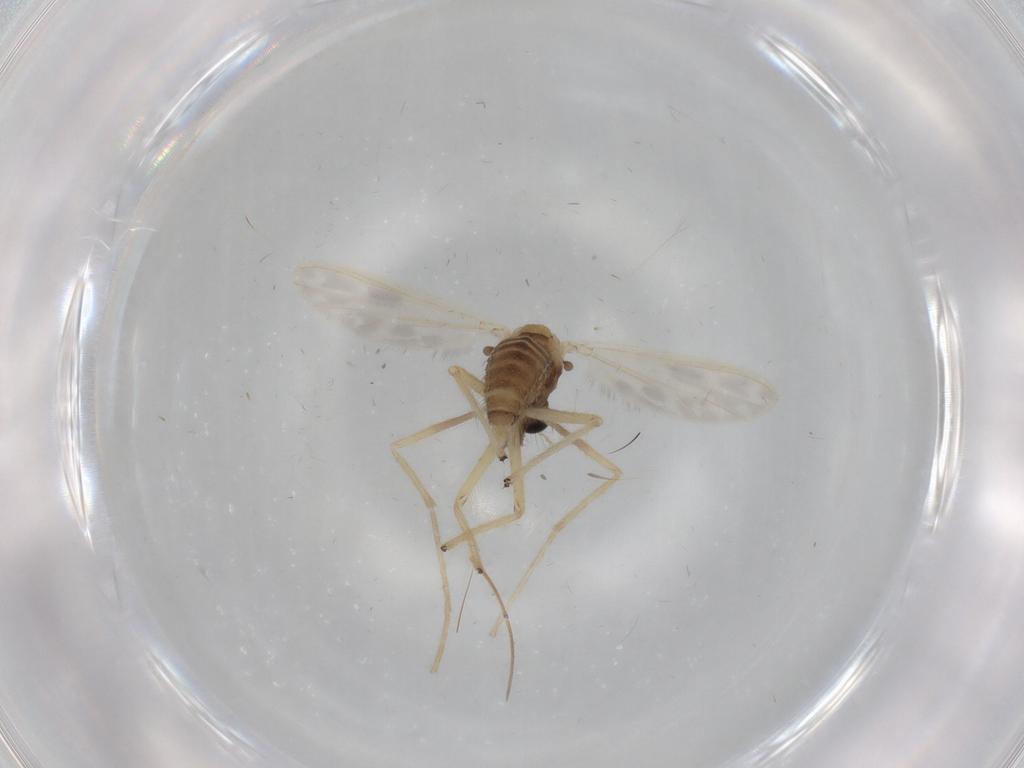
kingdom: Animalia
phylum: Arthropoda
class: Insecta
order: Diptera
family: Chironomidae
